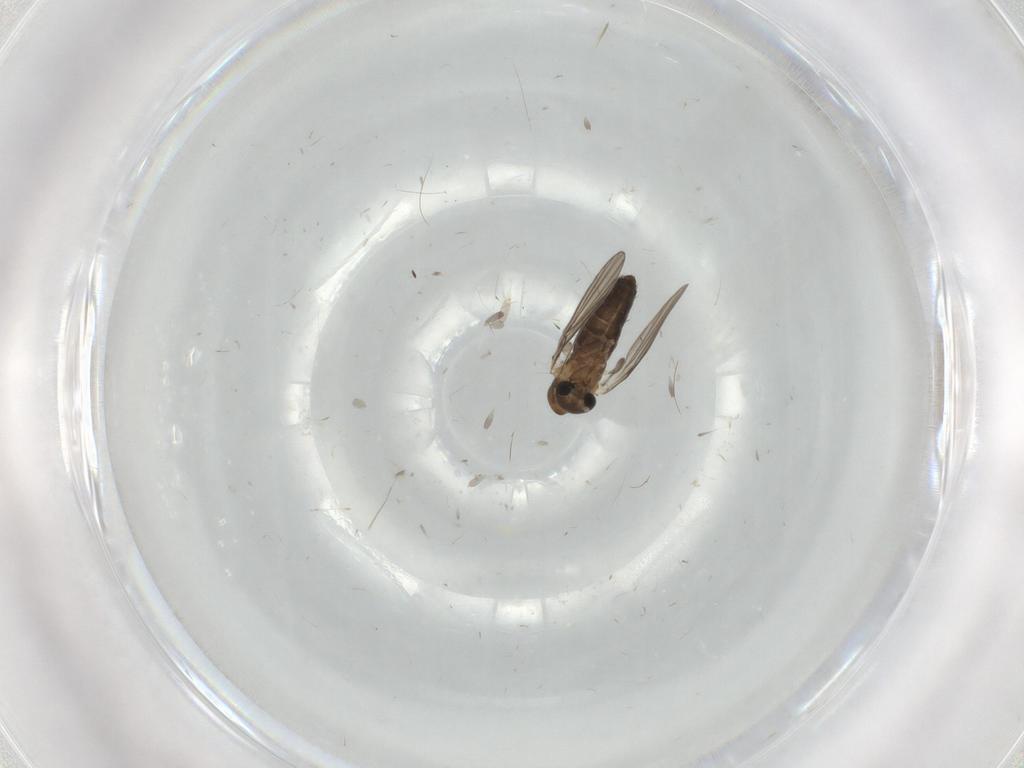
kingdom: Animalia
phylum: Arthropoda
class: Insecta
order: Diptera
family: Psychodidae
